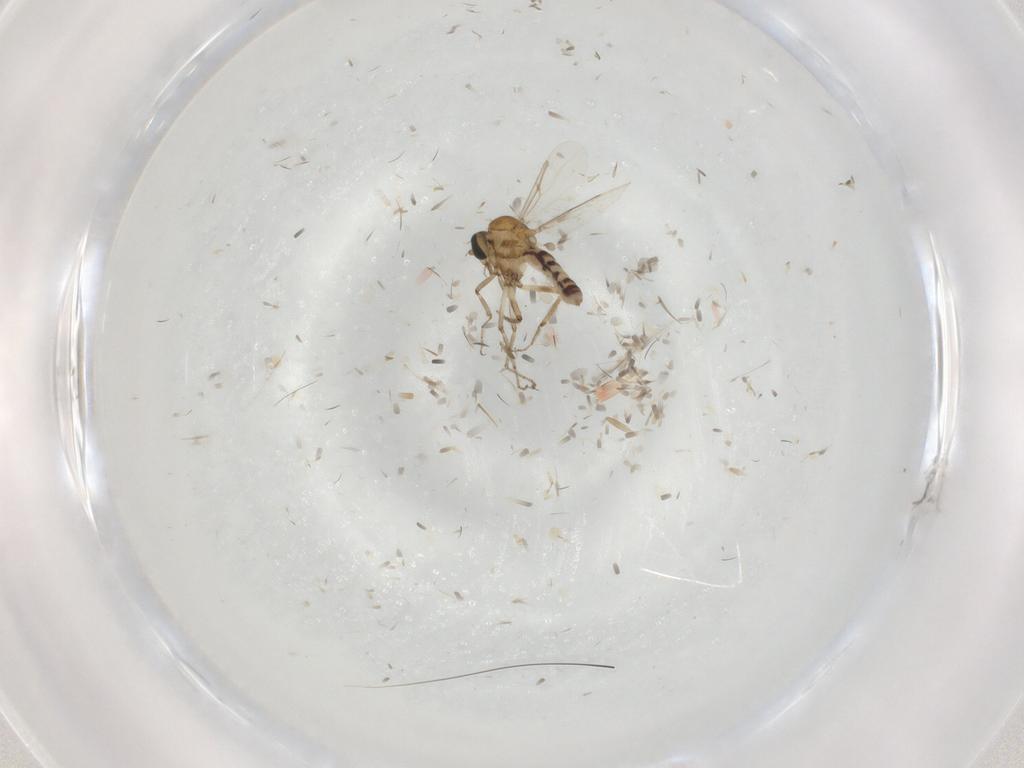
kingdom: Animalia
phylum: Arthropoda
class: Insecta
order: Diptera
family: Ceratopogonidae
